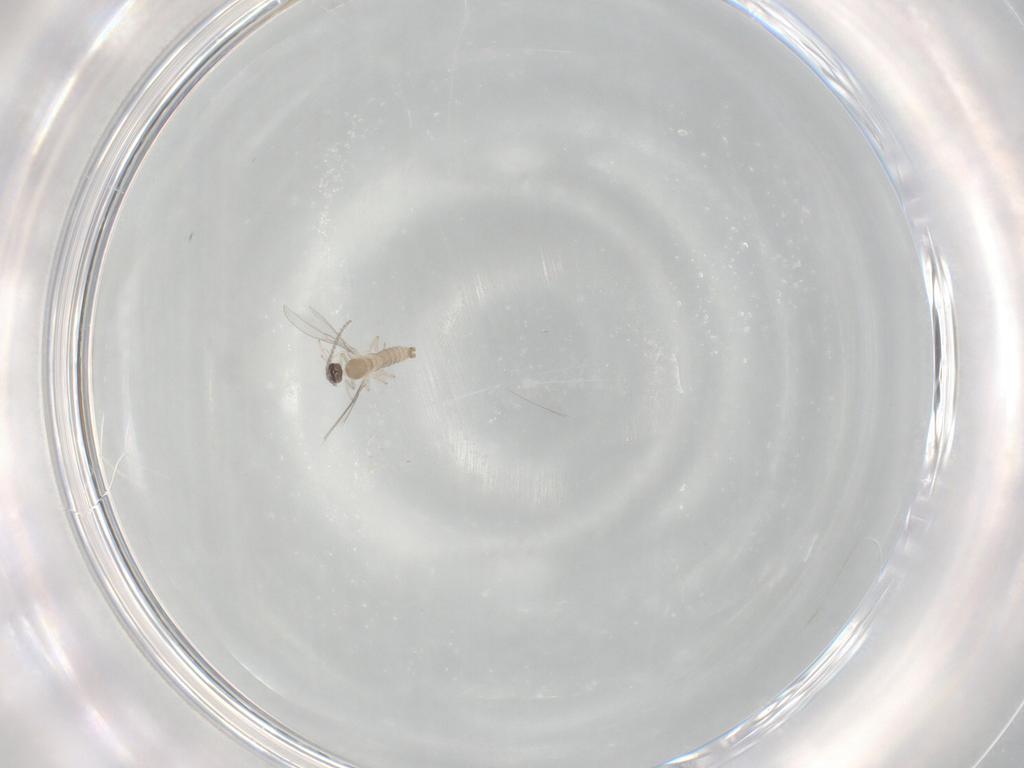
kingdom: Animalia
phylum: Arthropoda
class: Insecta
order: Diptera
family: Cecidomyiidae
